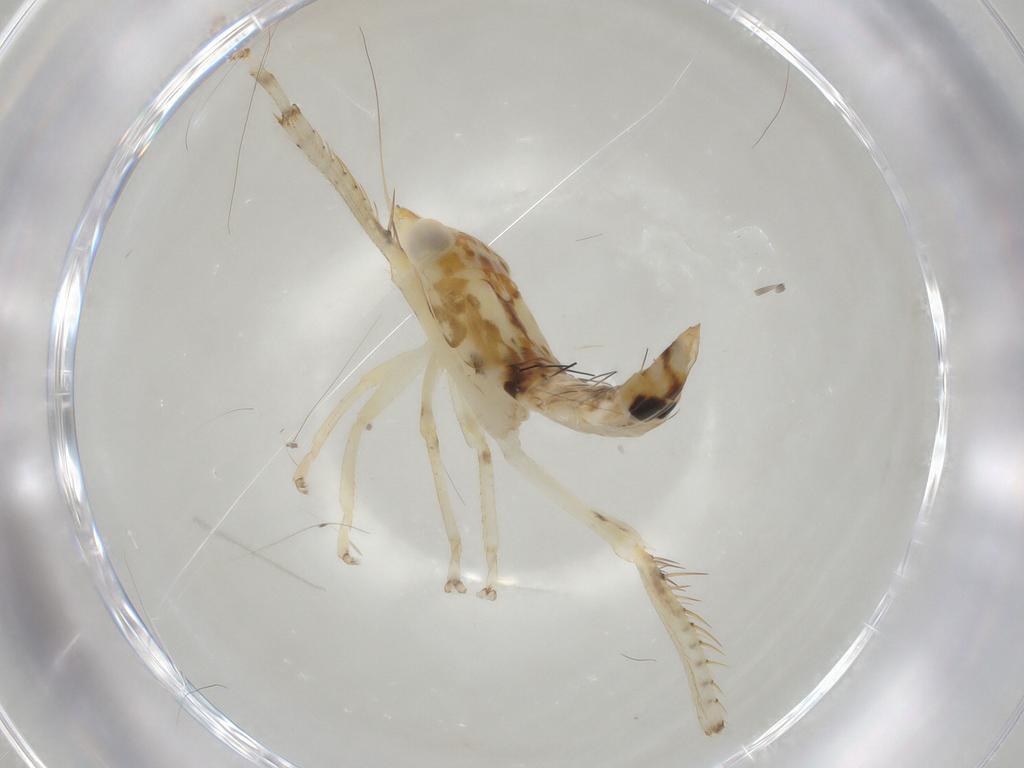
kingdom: Animalia
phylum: Arthropoda
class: Insecta
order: Hemiptera
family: Cicadellidae
